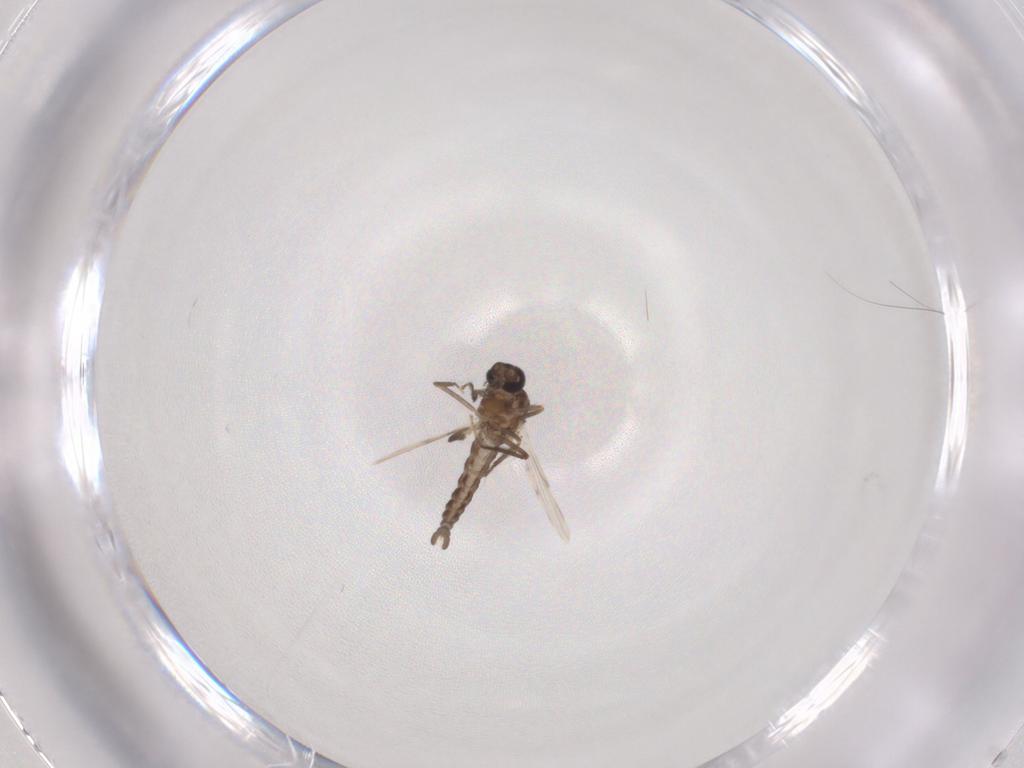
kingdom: Animalia
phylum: Arthropoda
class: Insecta
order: Diptera
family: Ceratopogonidae
